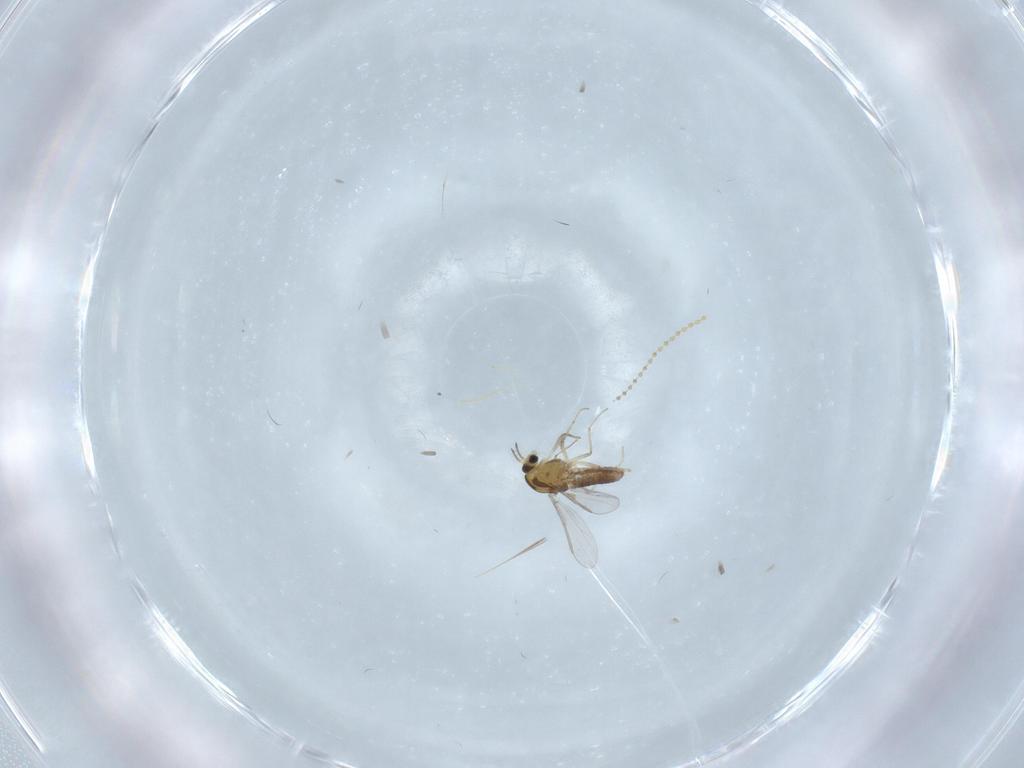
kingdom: Animalia
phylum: Arthropoda
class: Insecta
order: Diptera
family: Chironomidae
